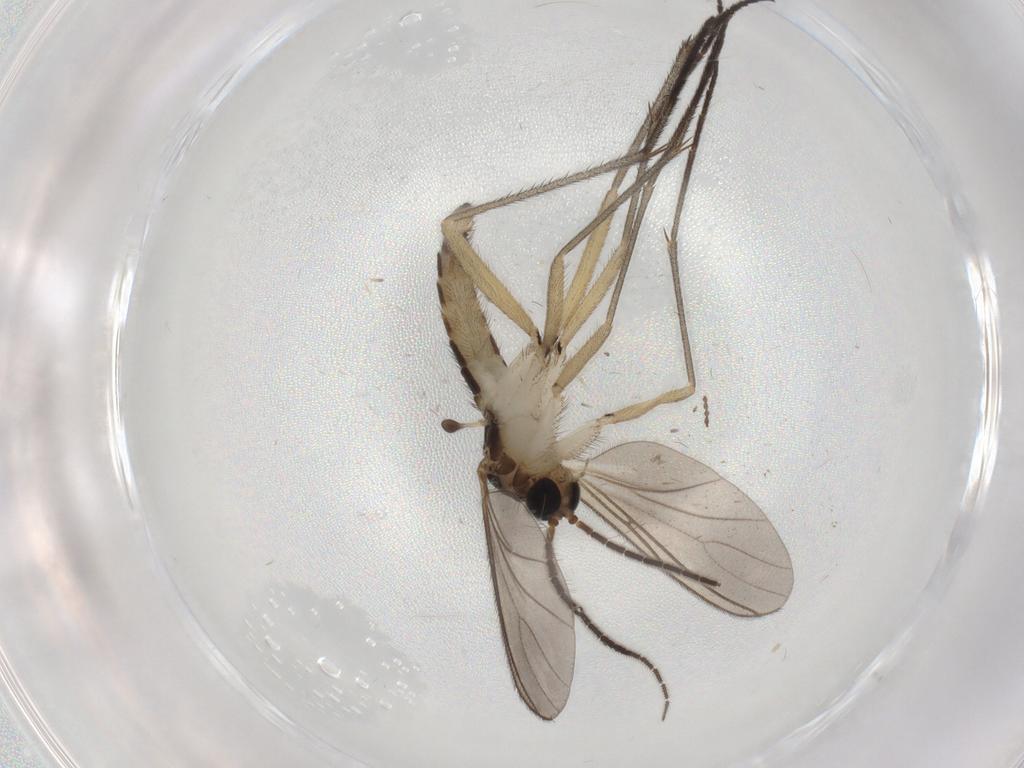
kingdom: Animalia
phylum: Arthropoda
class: Insecta
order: Diptera
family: Sciaridae
